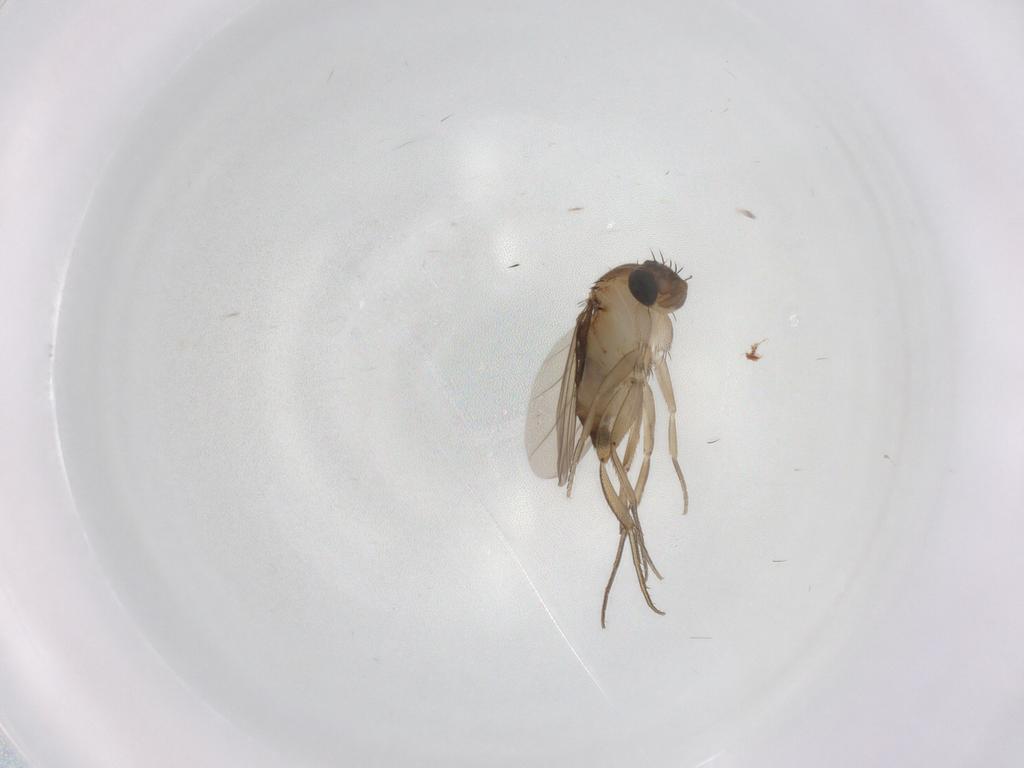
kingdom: Animalia
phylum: Arthropoda
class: Insecta
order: Diptera
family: Phoridae
